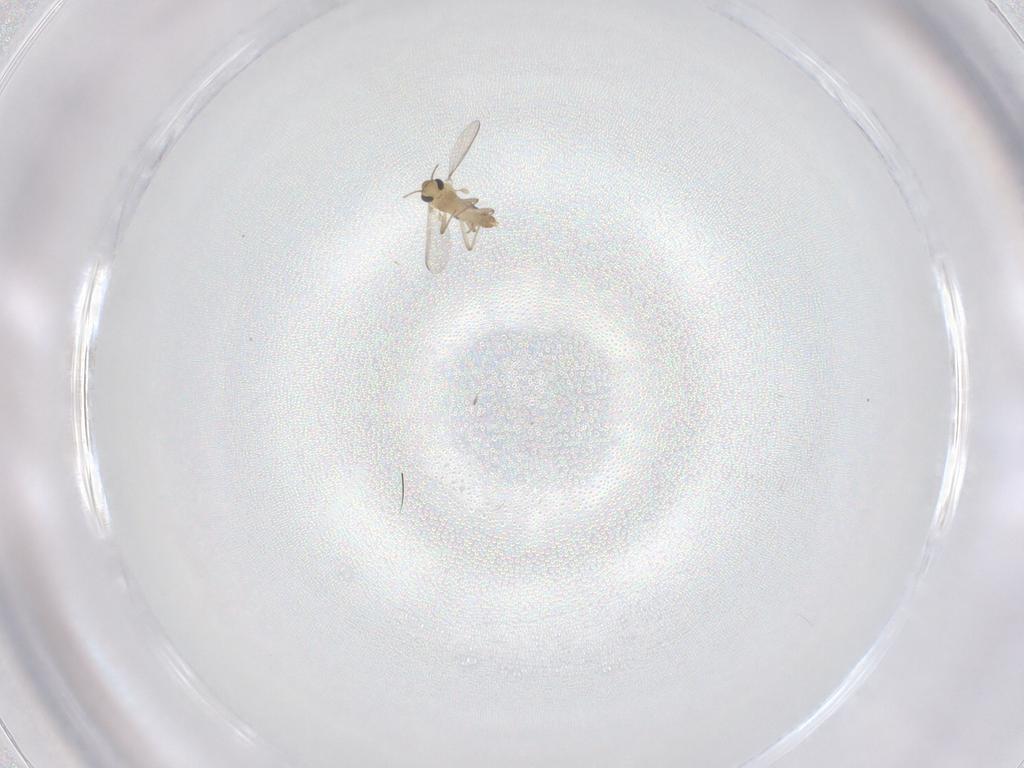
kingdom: Animalia
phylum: Arthropoda
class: Insecta
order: Diptera
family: Chironomidae
